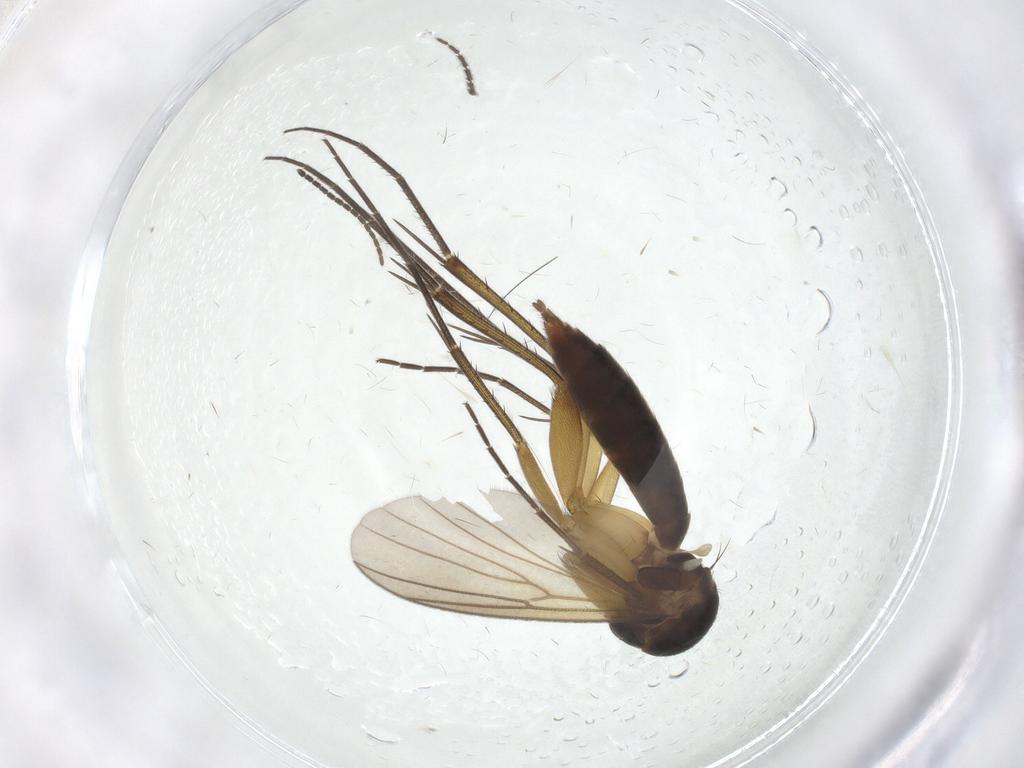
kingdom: Animalia
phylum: Arthropoda
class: Insecta
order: Diptera
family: Mycetophilidae
